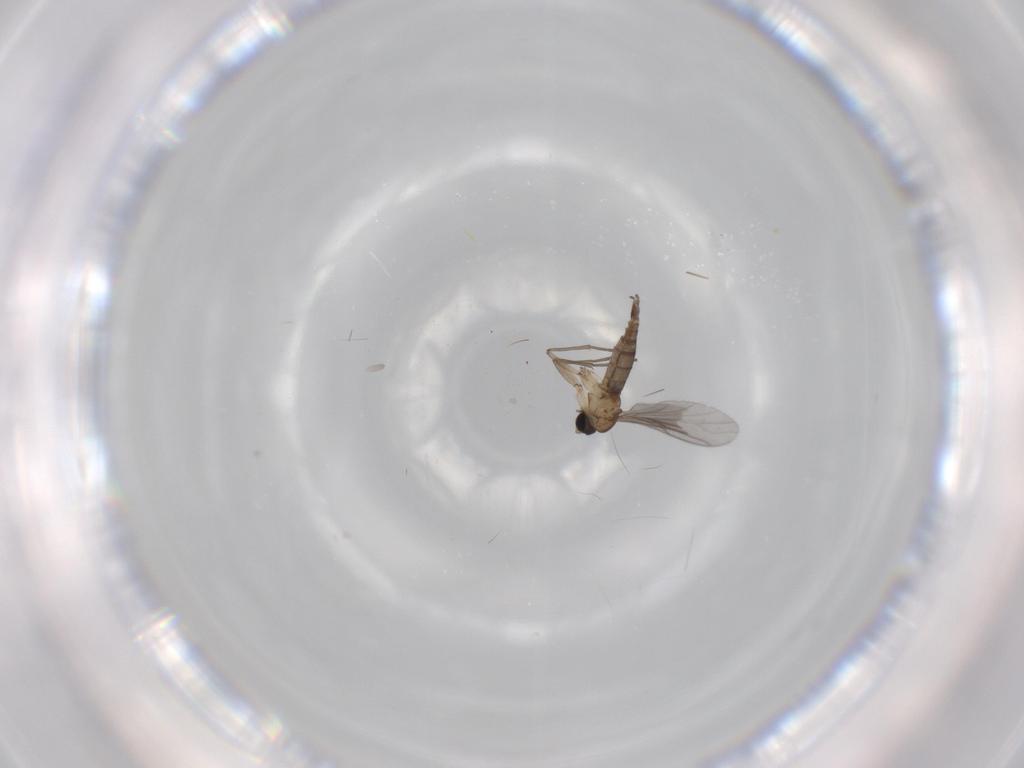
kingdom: Animalia
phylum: Arthropoda
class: Insecta
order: Diptera
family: Sciaridae
